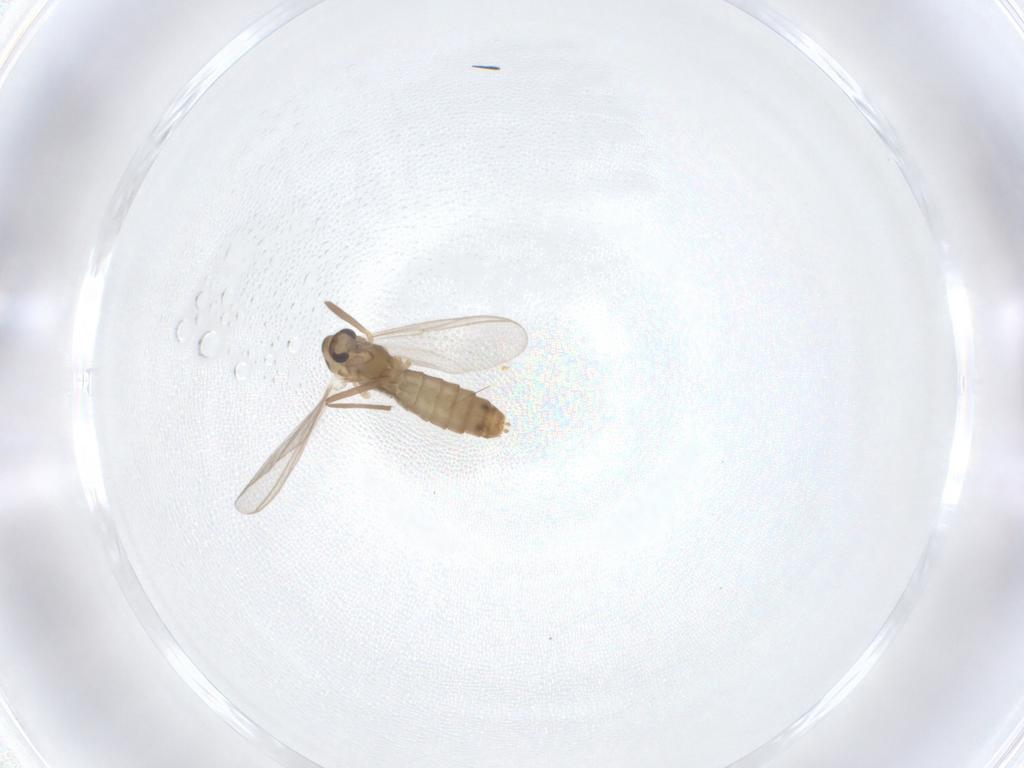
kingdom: Animalia
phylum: Arthropoda
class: Insecta
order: Diptera
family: Chironomidae
